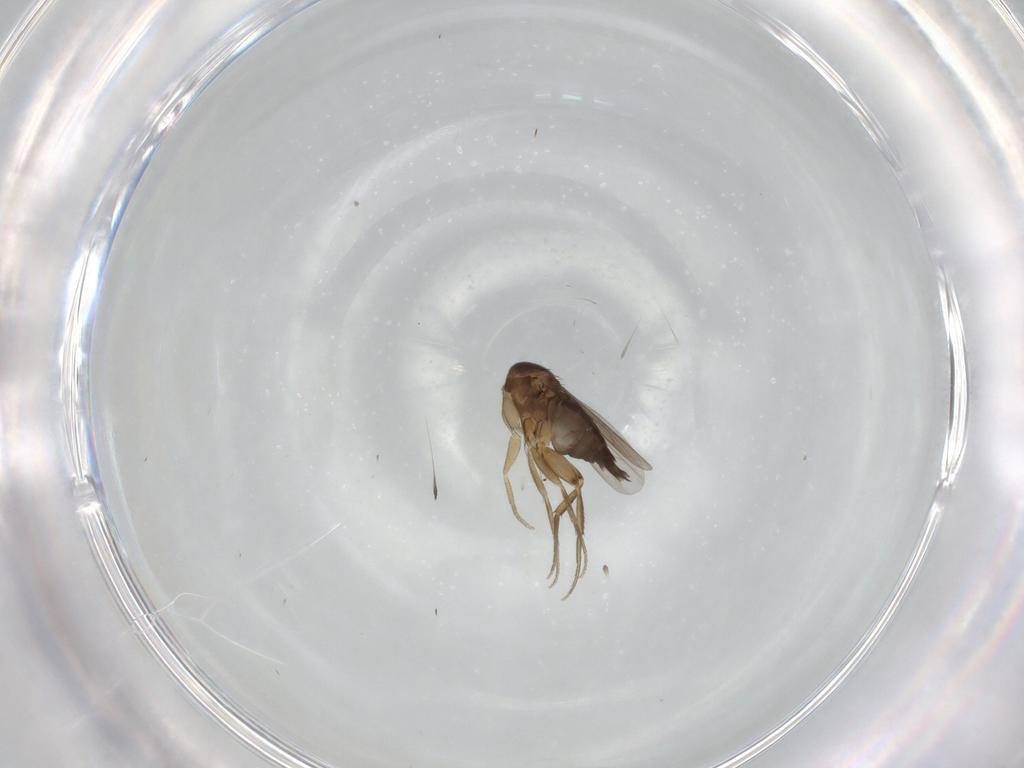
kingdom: Animalia
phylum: Arthropoda
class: Insecta
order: Diptera
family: Phoridae
